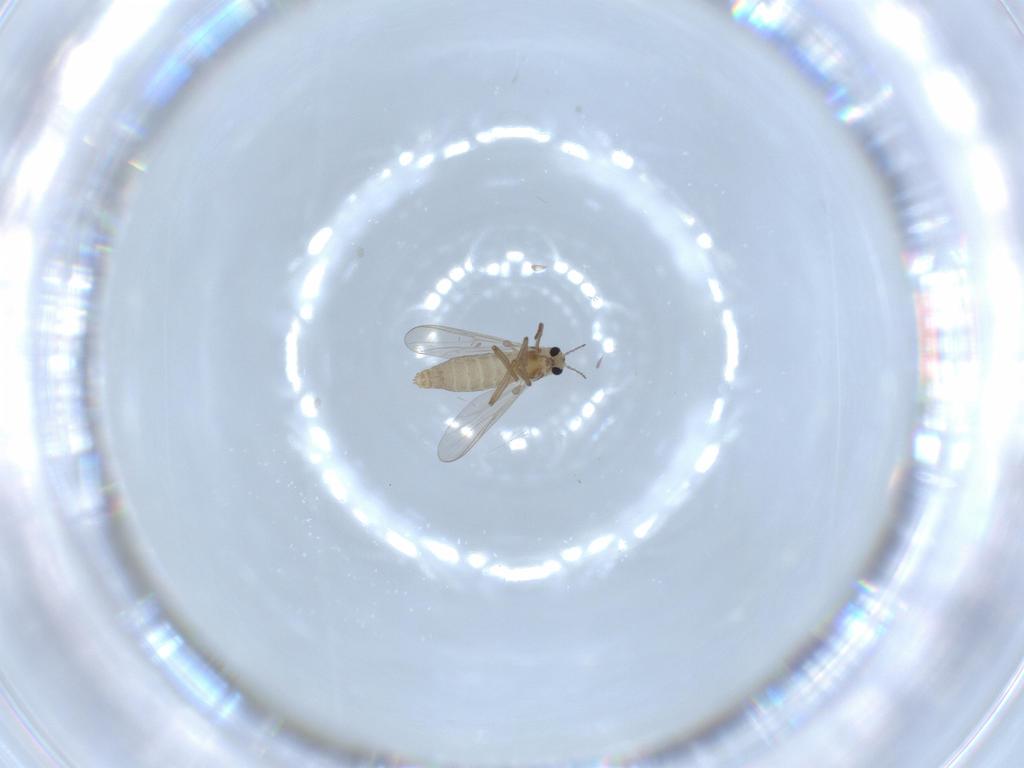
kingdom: Animalia
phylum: Arthropoda
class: Insecta
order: Diptera
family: Chironomidae
